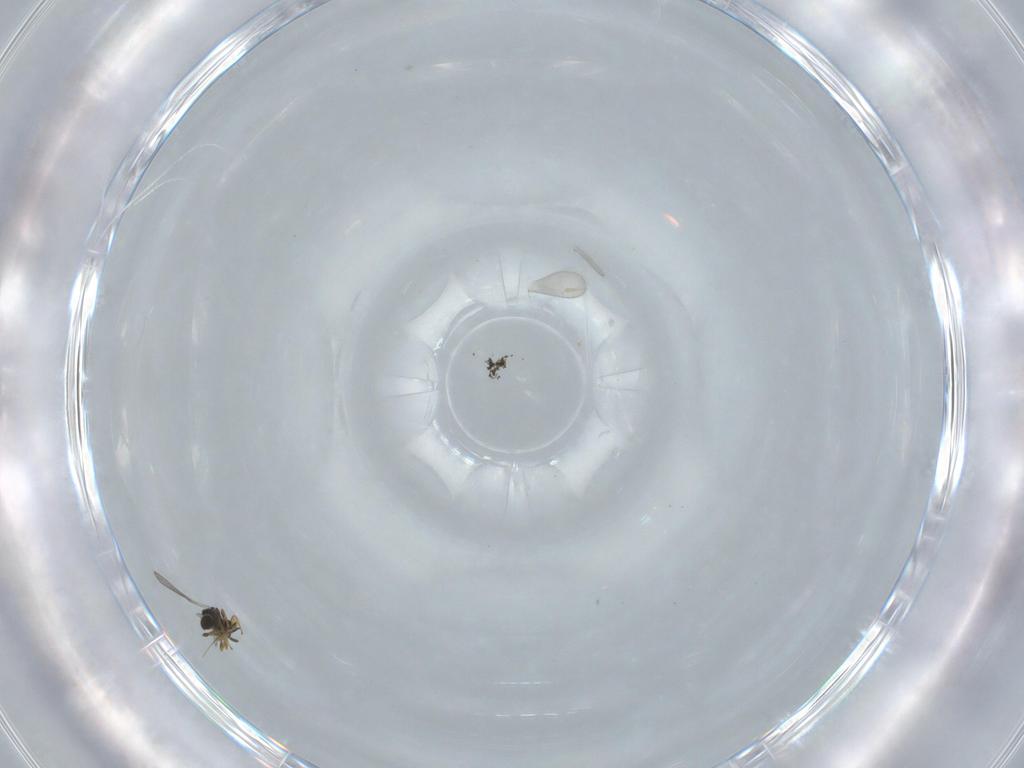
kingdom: Animalia
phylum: Arthropoda
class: Insecta
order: Hymenoptera
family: Platygastridae
